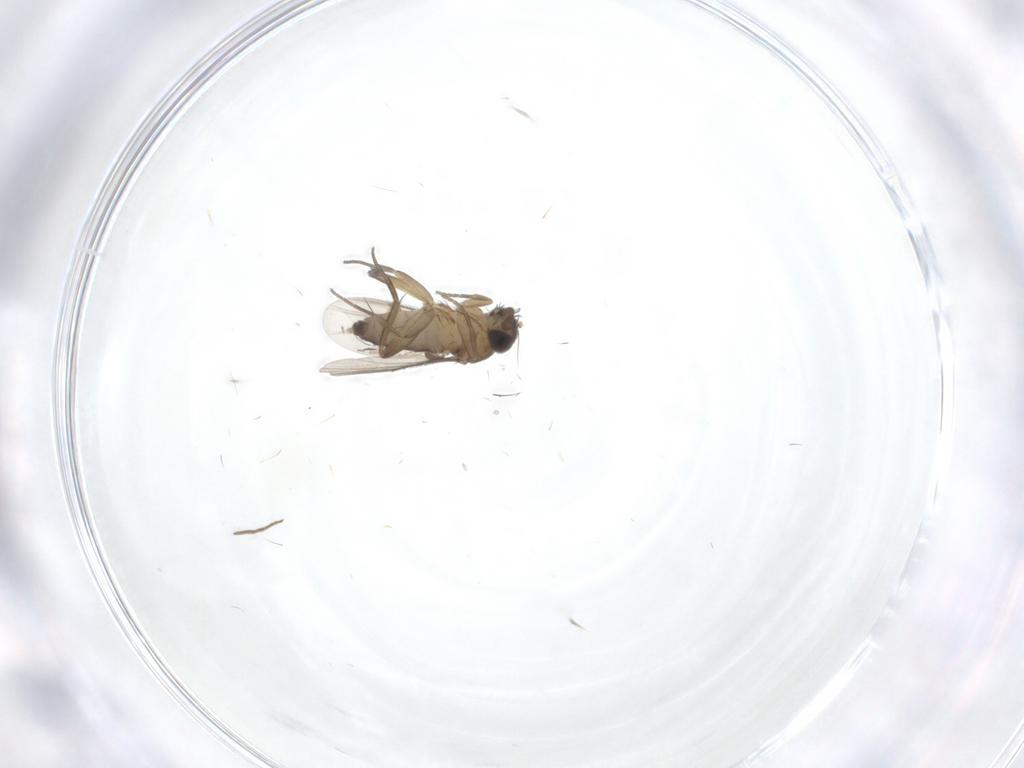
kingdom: Animalia
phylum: Arthropoda
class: Insecta
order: Diptera
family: Phoridae
